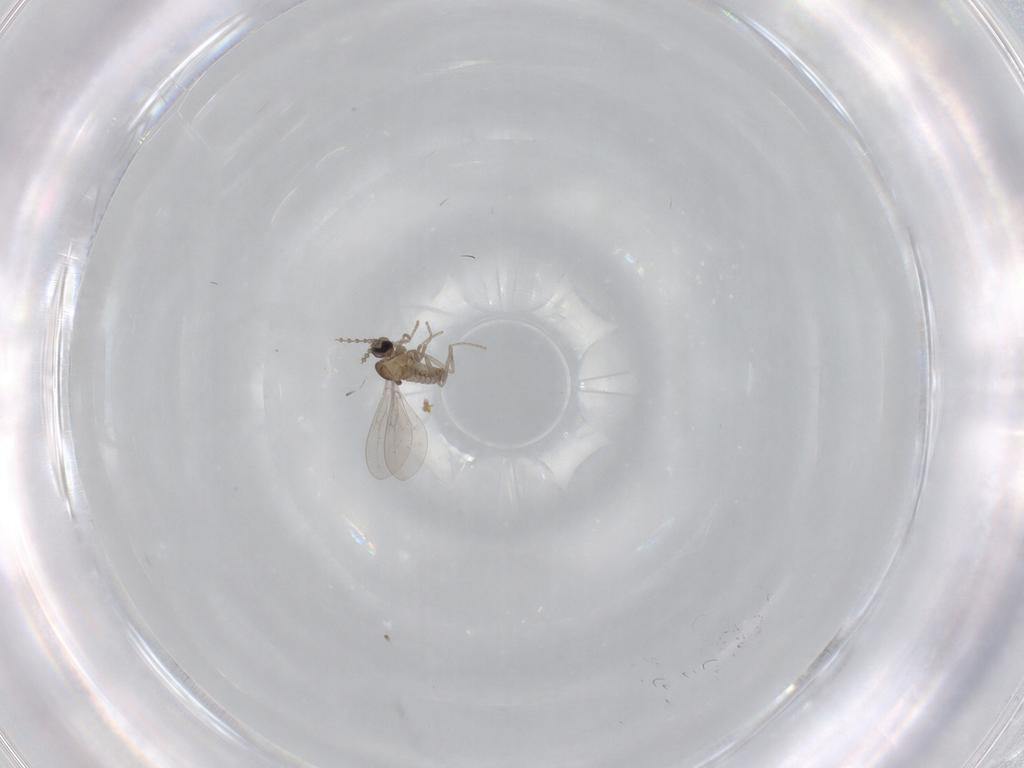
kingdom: Animalia
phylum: Arthropoda
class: Insecta
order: Diptera
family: Cecidomyiidae
